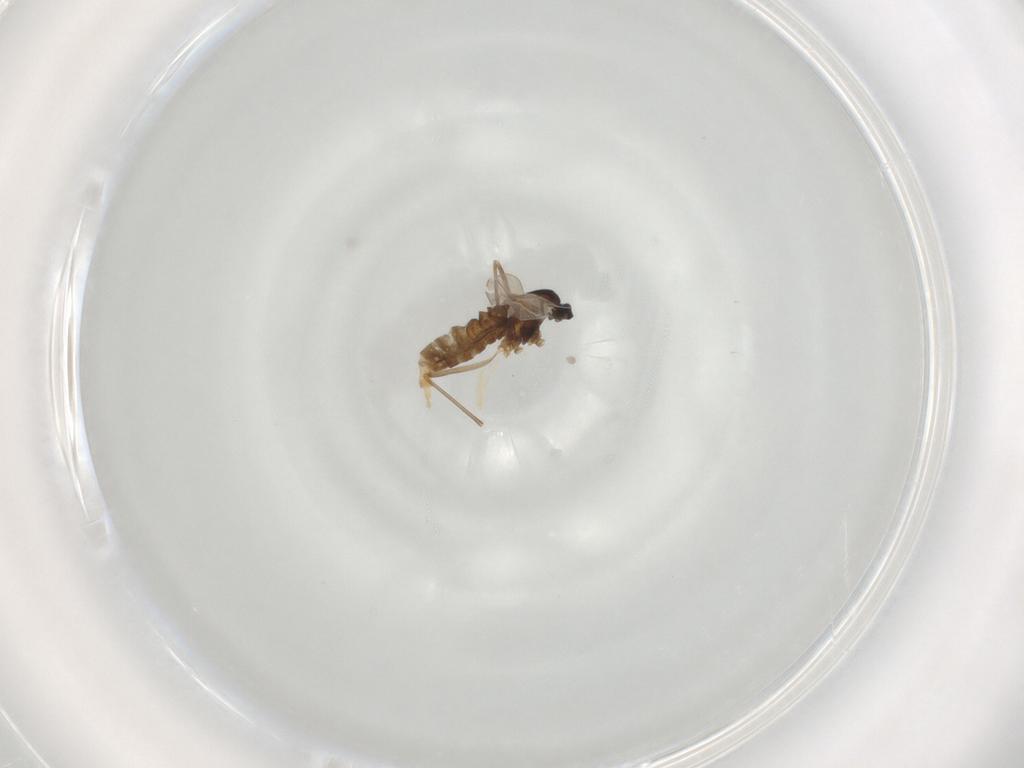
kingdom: Animalia
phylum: Arthropoda
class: Insecta
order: Diptera
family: Cecidomyiidae
